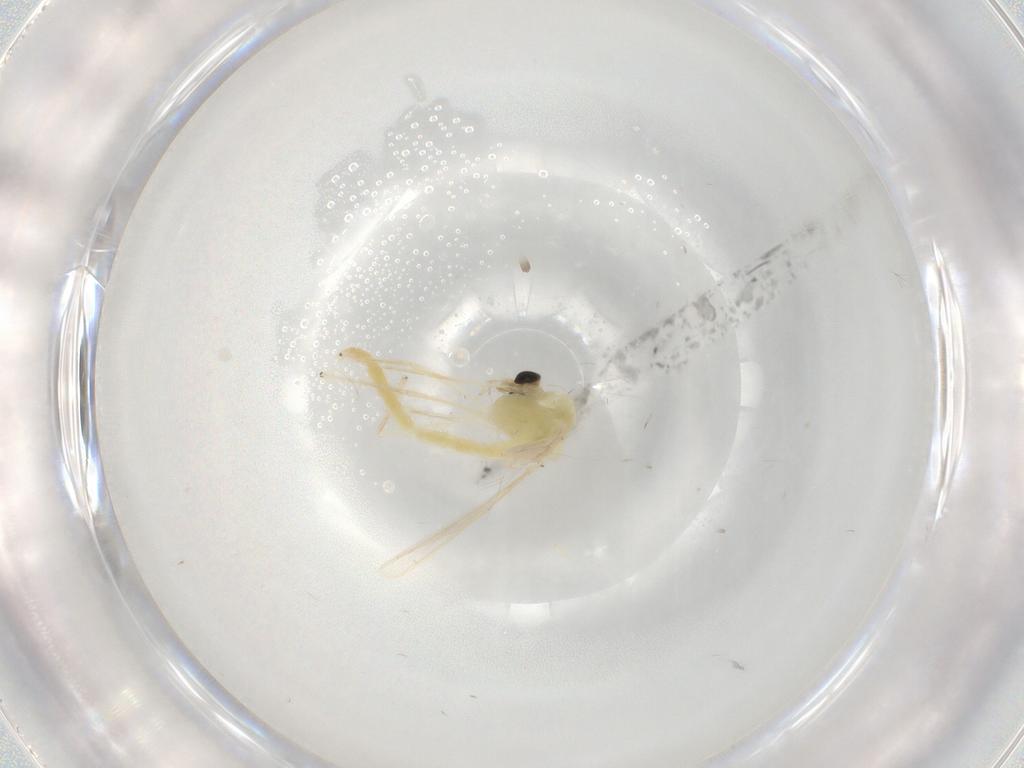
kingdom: Animalia
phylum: Arthropoda
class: Insecta
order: Diptera
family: Chironomidae
